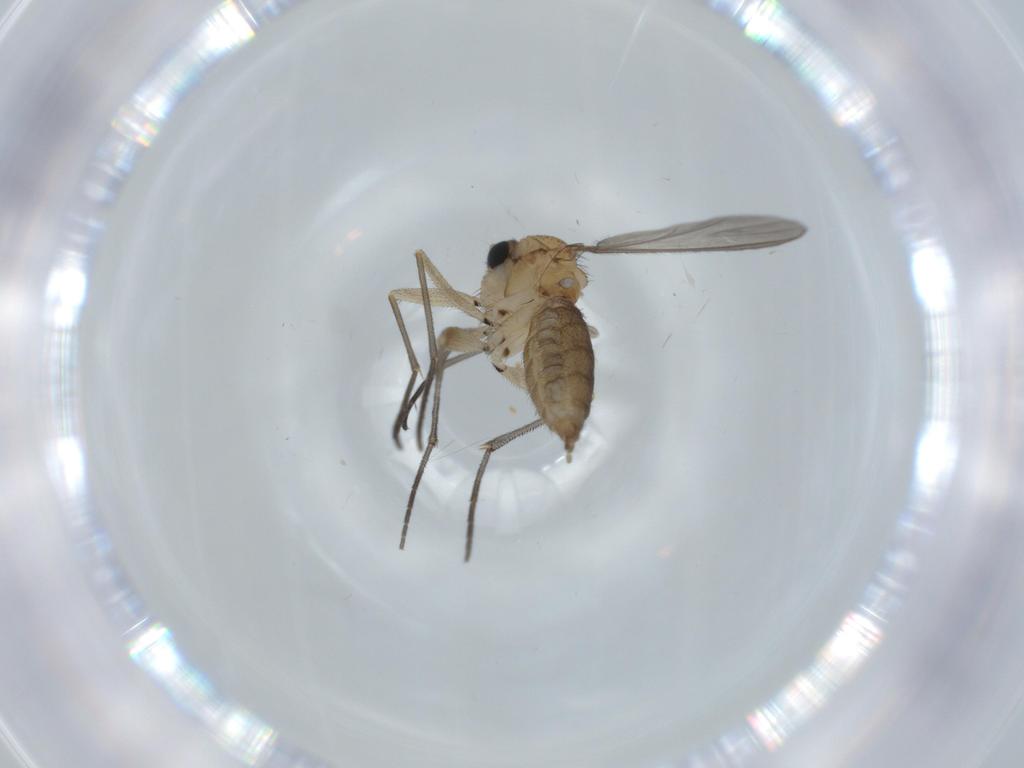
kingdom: Animalia
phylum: Arthropoda
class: Insecta
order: Diptera
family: Sciaridae
